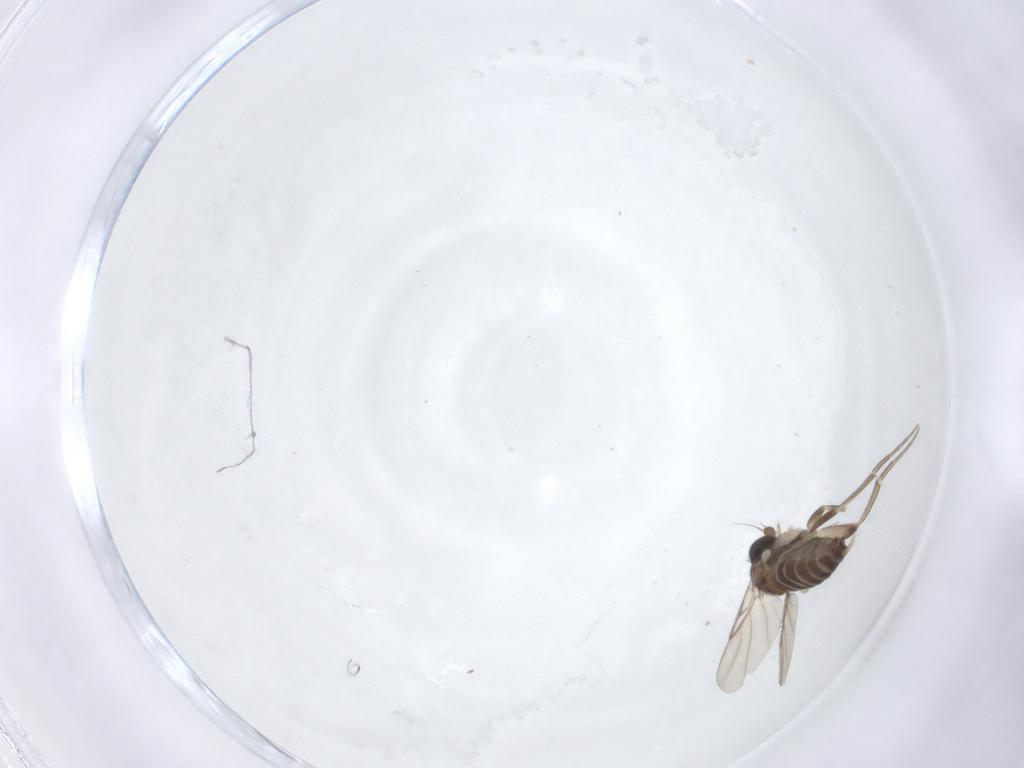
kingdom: Animalia
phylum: Arthropoda
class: Insecta
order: Diptera
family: Phoridae
